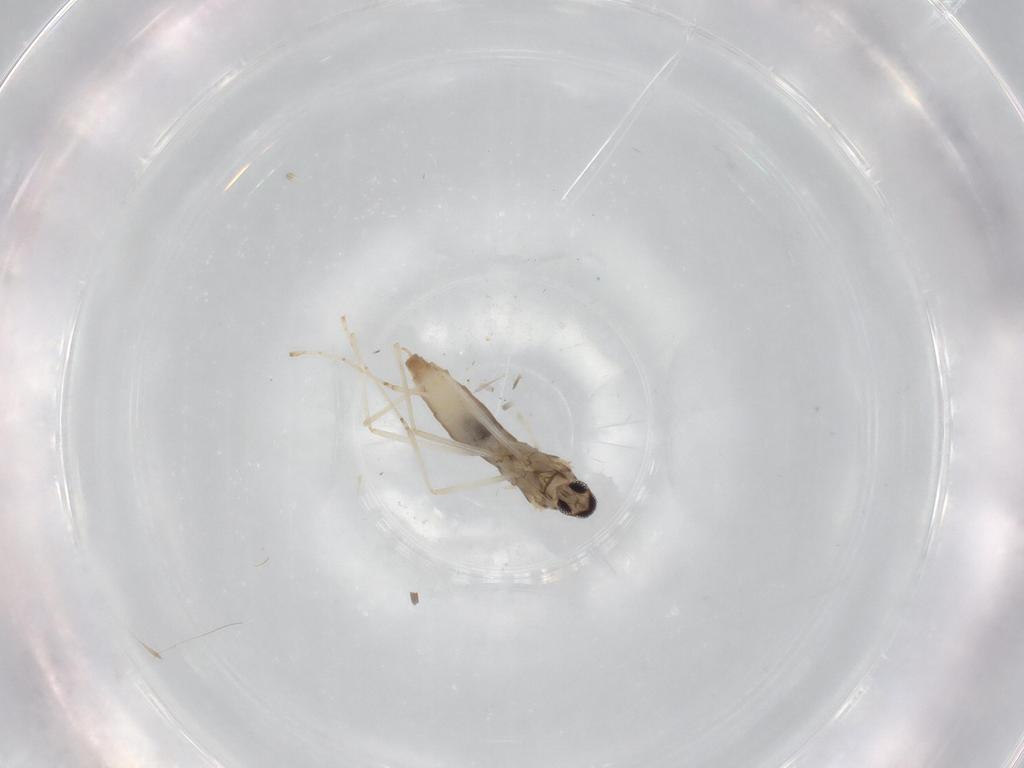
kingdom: Animalia
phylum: Arthropoda
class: Insecta
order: Diptera
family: Cecidomyiidae
